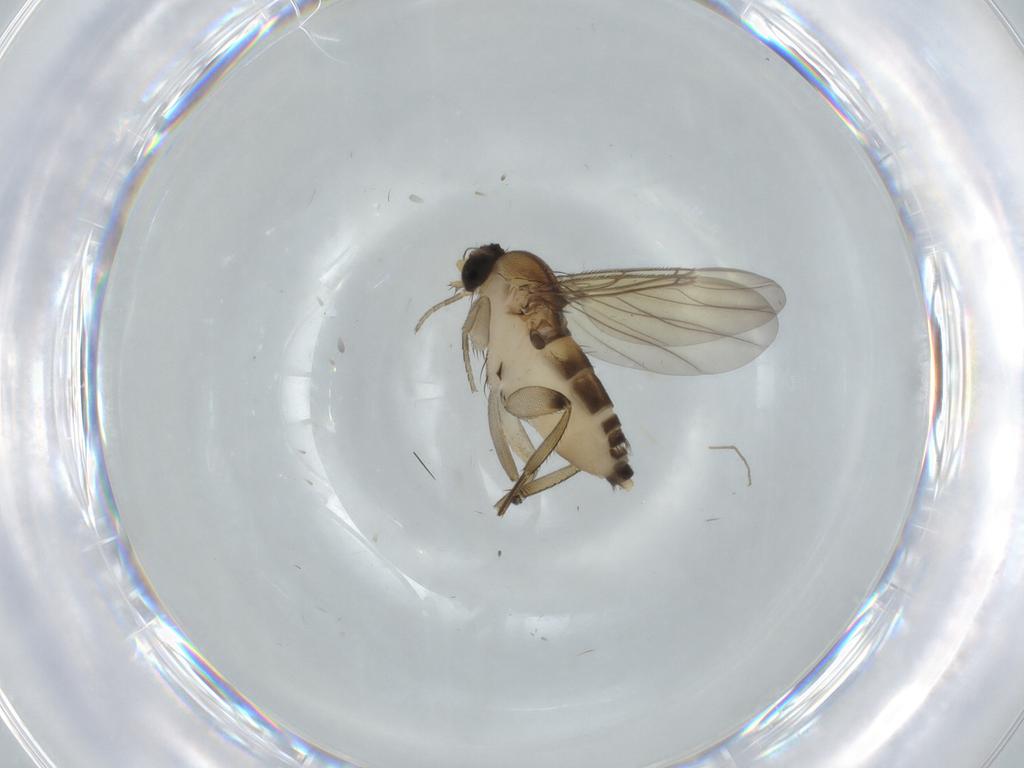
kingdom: Animalia
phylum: Arthropoda
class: Insecta
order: Diptera
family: Phoridae
